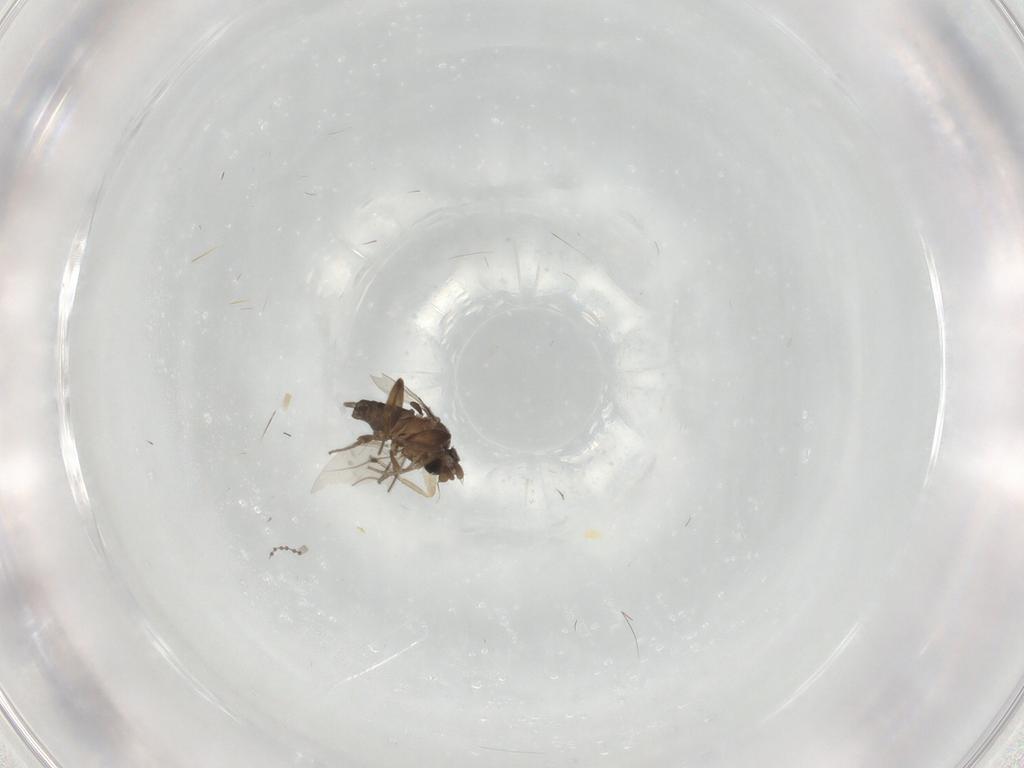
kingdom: Animalia
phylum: Arthropoda
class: Insecta
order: Diptera
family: Cecidomyiidae
